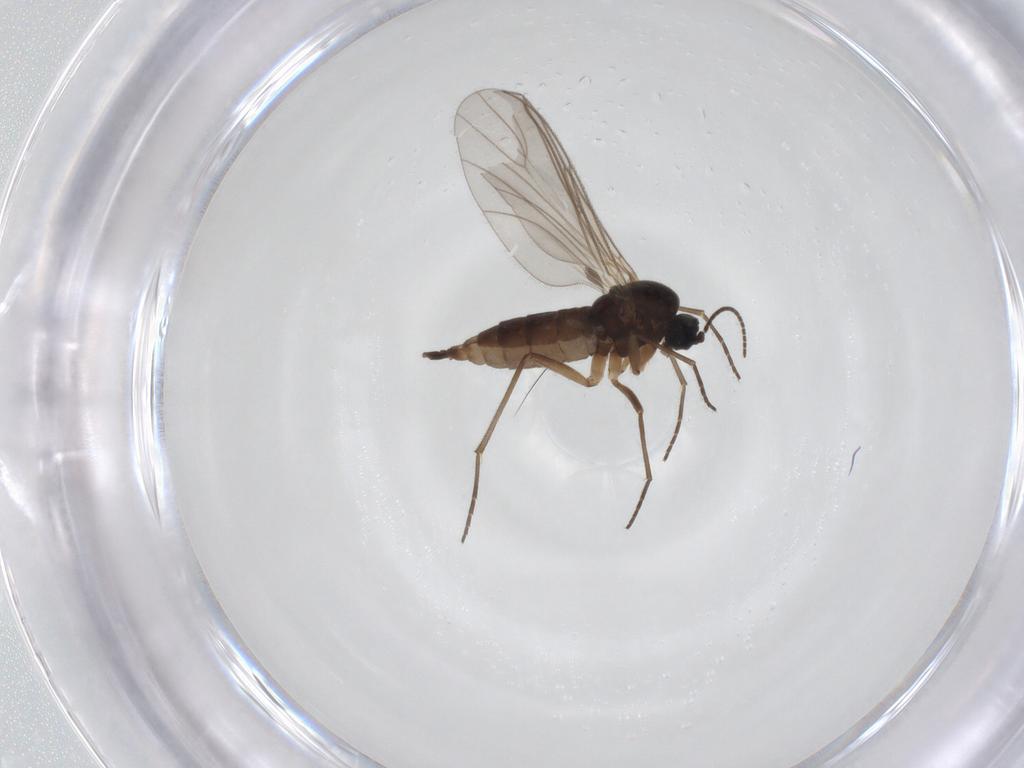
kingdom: Animalia
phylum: Arthropoda
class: Insecta
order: Diptera
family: Sciaridae
